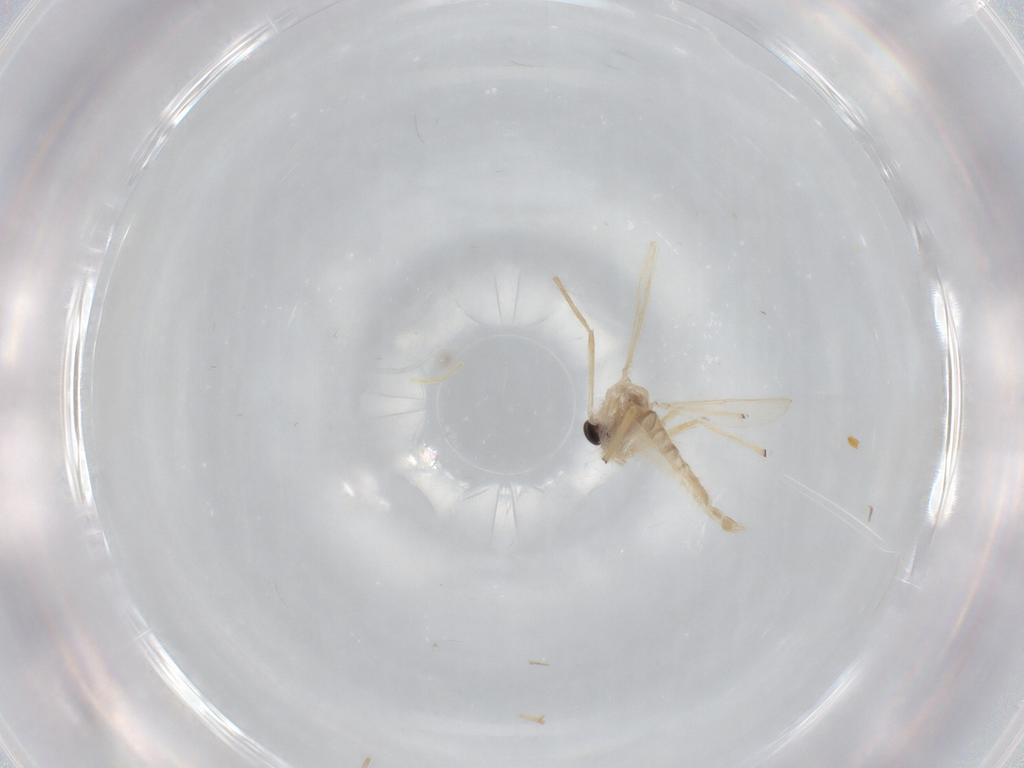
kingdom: Animalia
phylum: Arthropoda
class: Insecta
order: Diptera
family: Chironomidae
